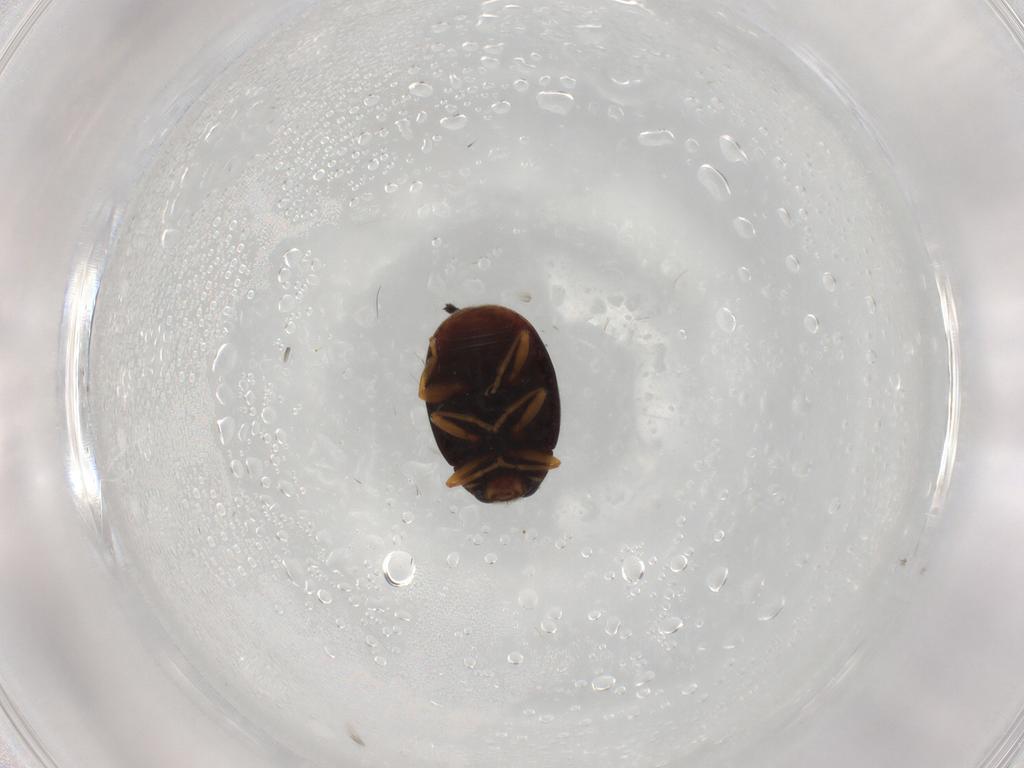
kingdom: Animalia
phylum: Arthropoda
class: Insecta
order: Coleoptera
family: Coccinellidae
